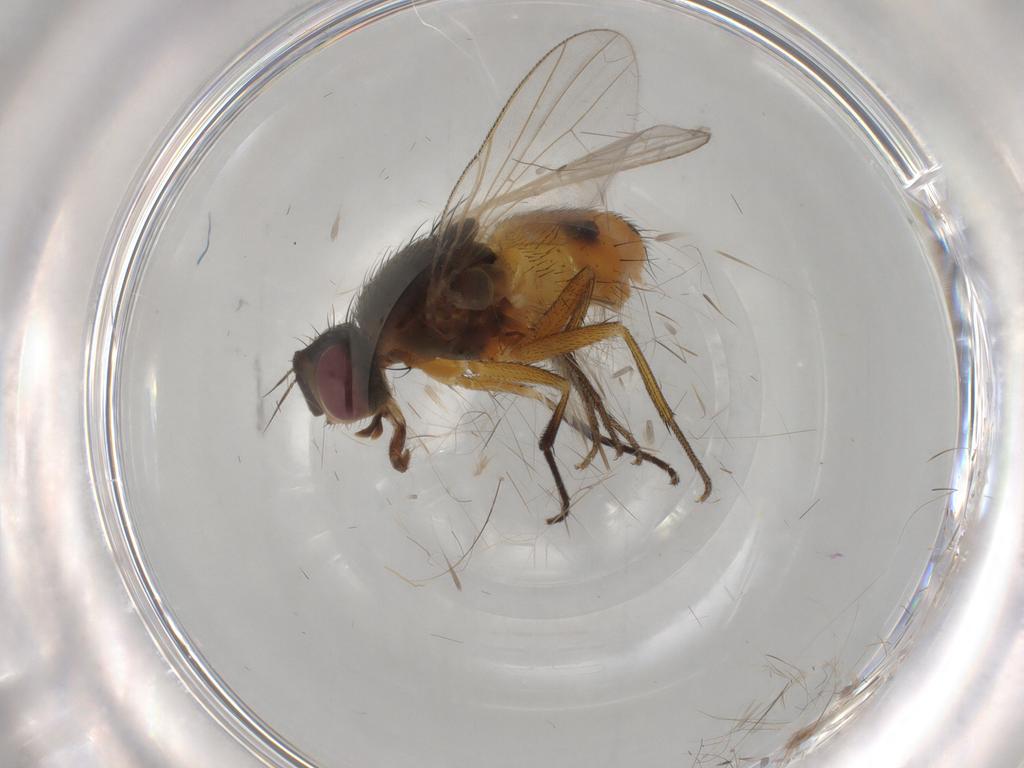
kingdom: Animalia
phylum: Arthropoda
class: Insecta
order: Diptera
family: Muscidae
